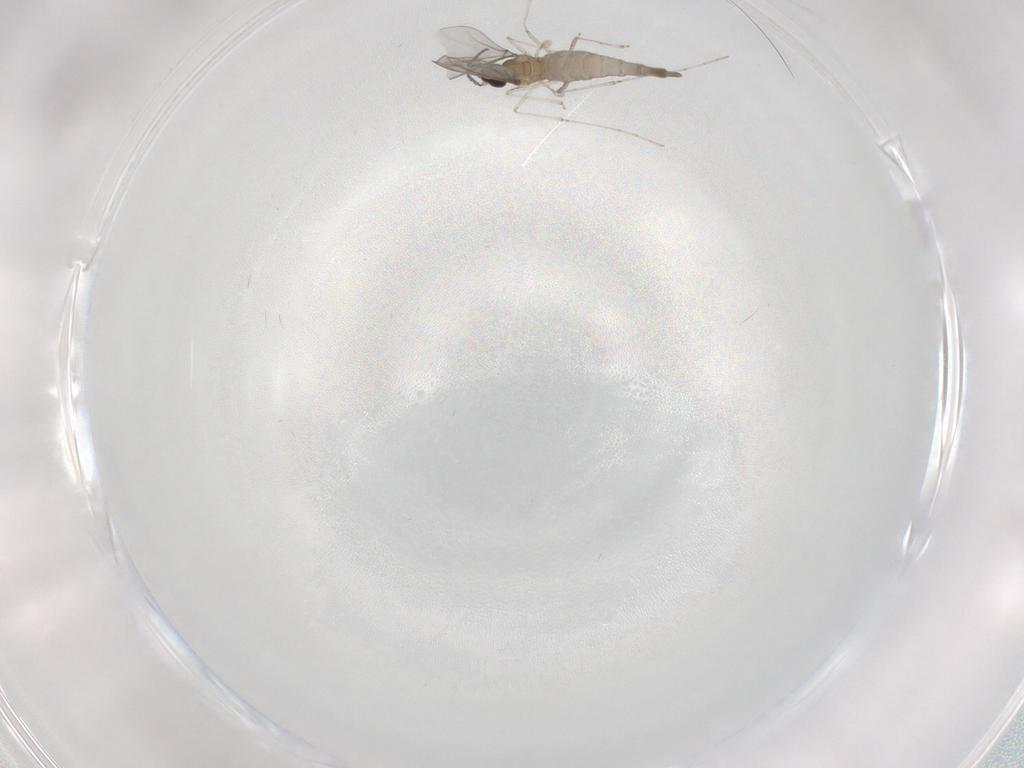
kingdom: Animalia
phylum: Arthropoda
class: Insecta
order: Diptera
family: Cecidomyiidae
